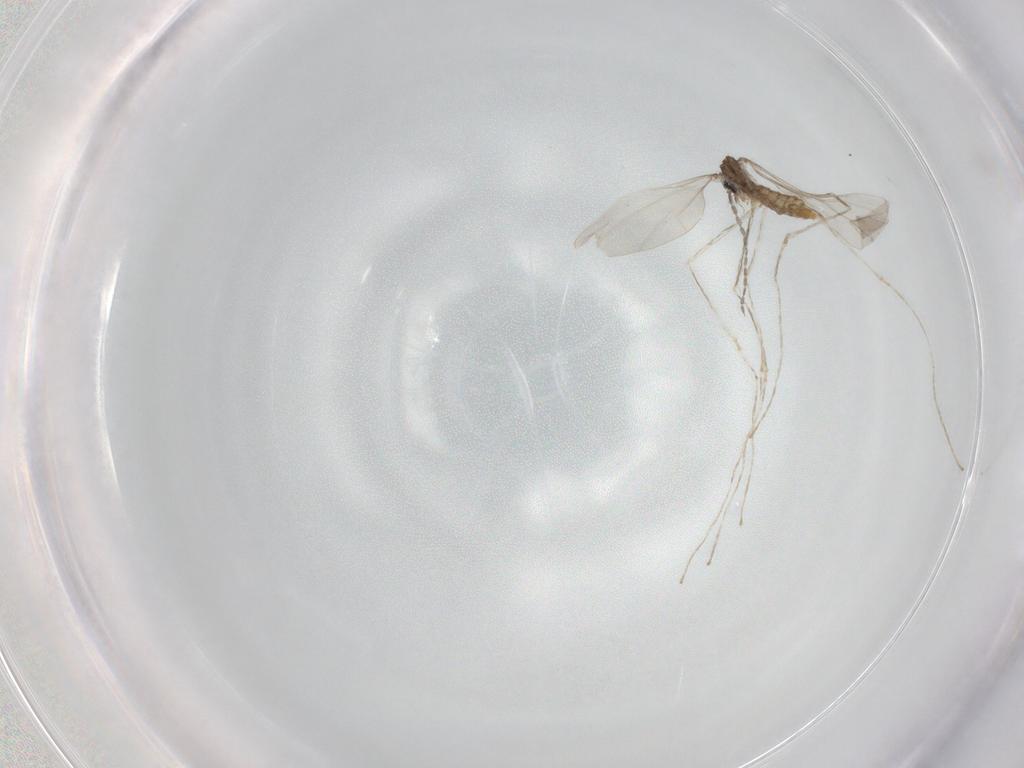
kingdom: Animalia
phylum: Arthropoda
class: Insecta
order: Diptera
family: Cecidomyiidae
